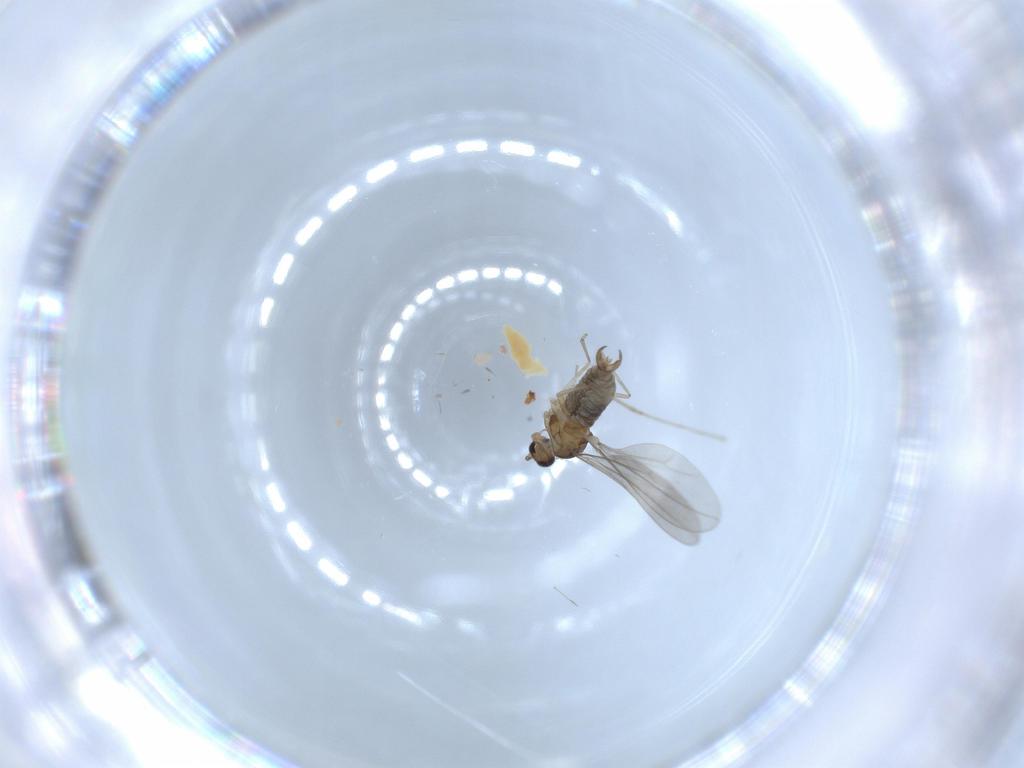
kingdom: Animalia
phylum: Arthropoda
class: Insecta
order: Diptera
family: Cecidomyiidae
